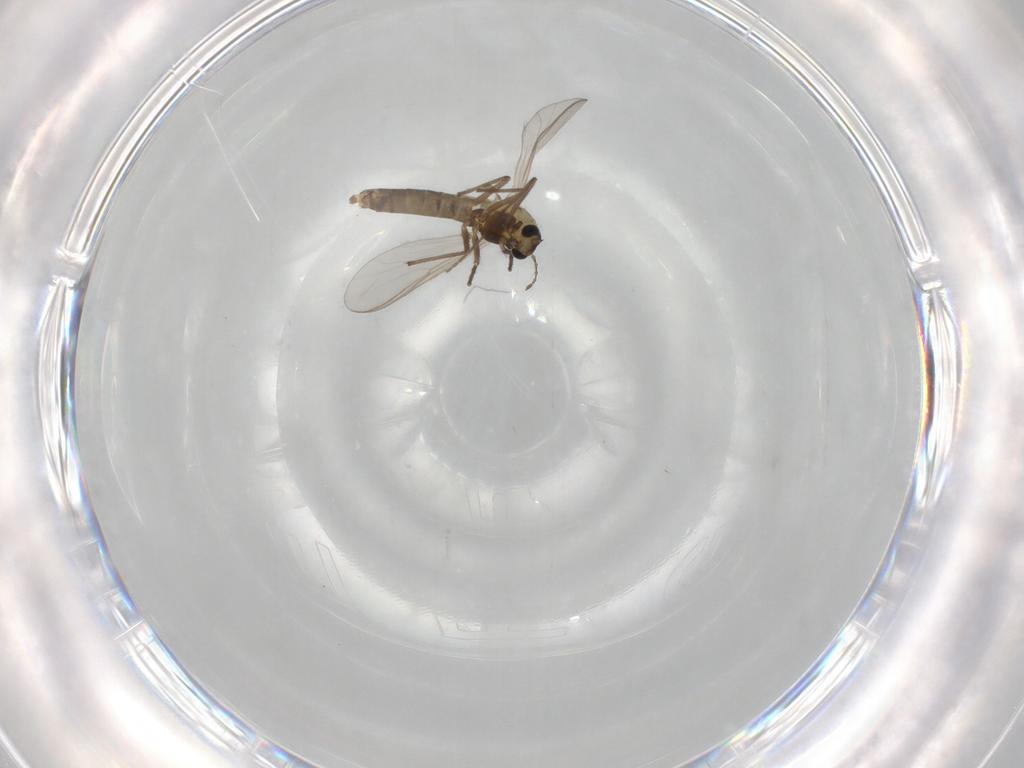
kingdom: Animalia
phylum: Arthropoda
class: Insecta
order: Diptera
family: Chironomidae
